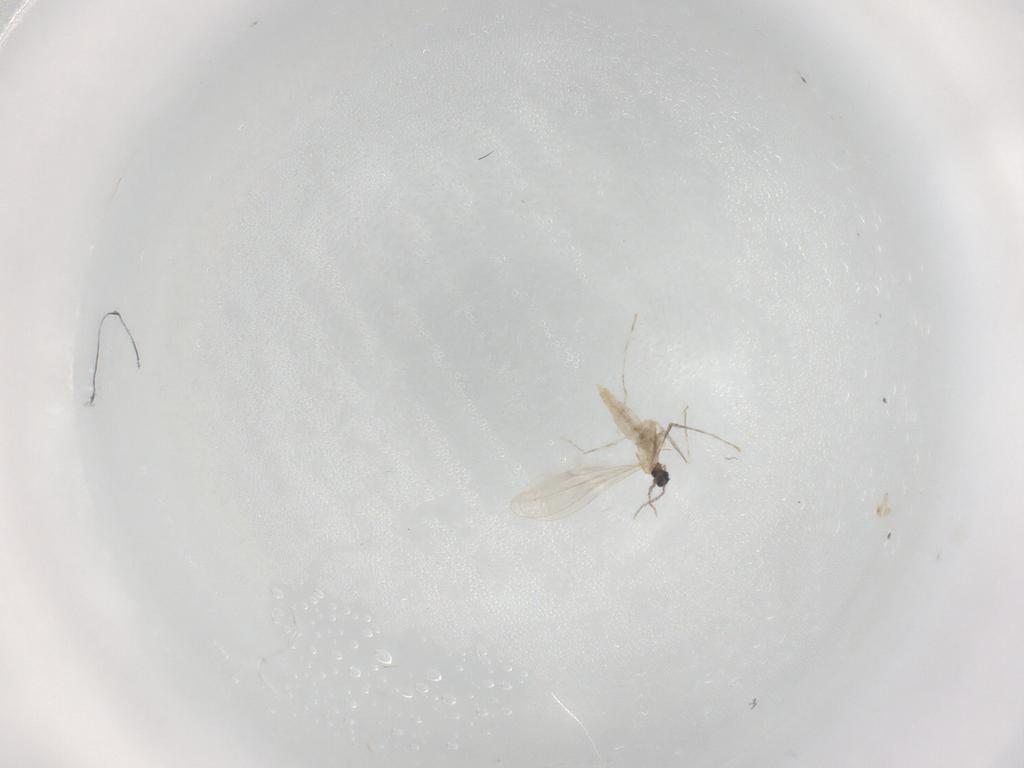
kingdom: Animalia
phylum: Arthropoda
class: Insecta
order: Diptera
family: Cecidomyiidae
